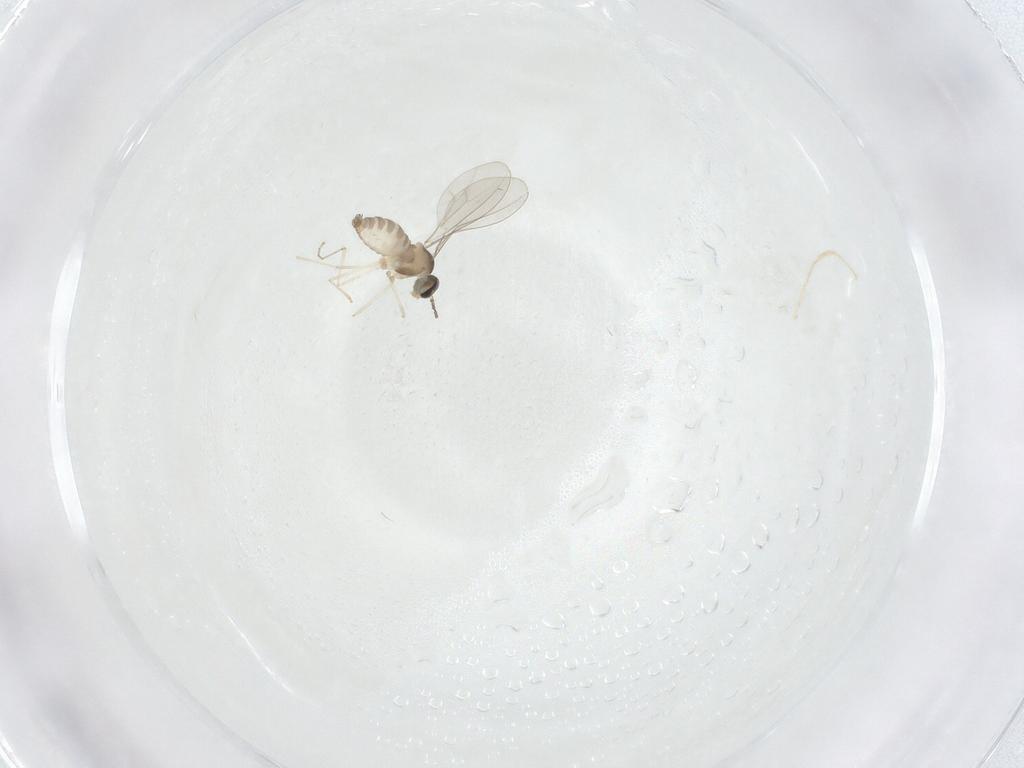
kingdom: Animalia
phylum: Arthropoda
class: Insecta
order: Diptera
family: Cecidomyiidae
